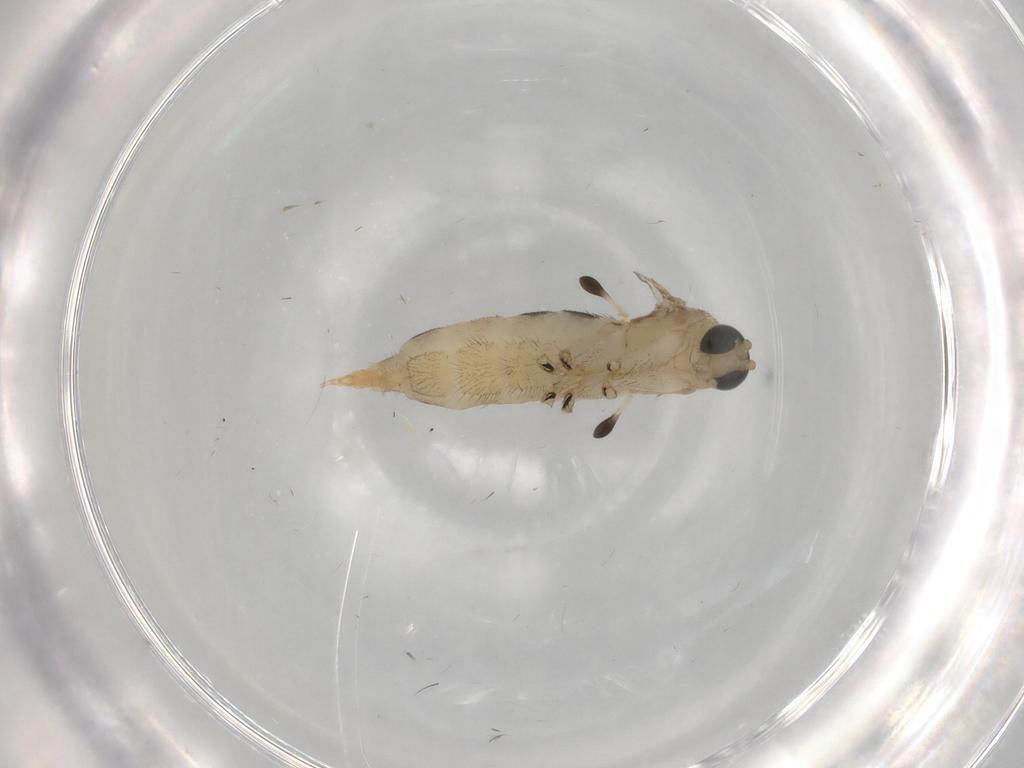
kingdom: Animalia
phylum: Arthropoda
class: Insecta
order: Diptera
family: Sciaridae
